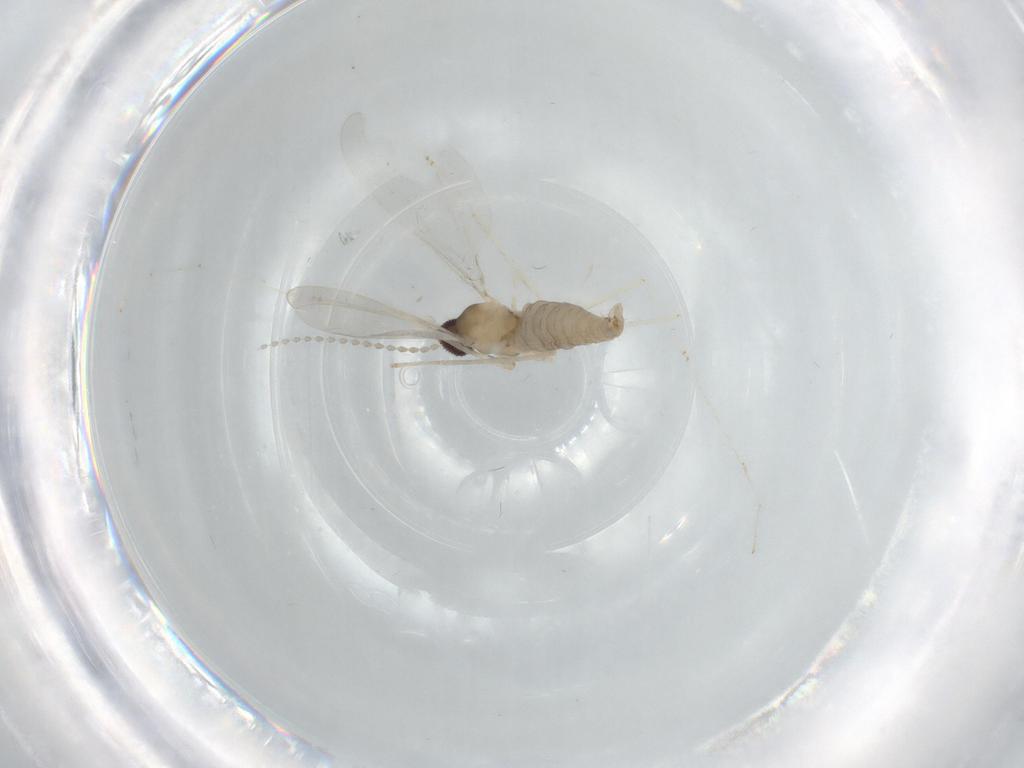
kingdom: Animalia
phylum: Arthropoda
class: Insecta
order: Diptera
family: Cecidomyiidae
